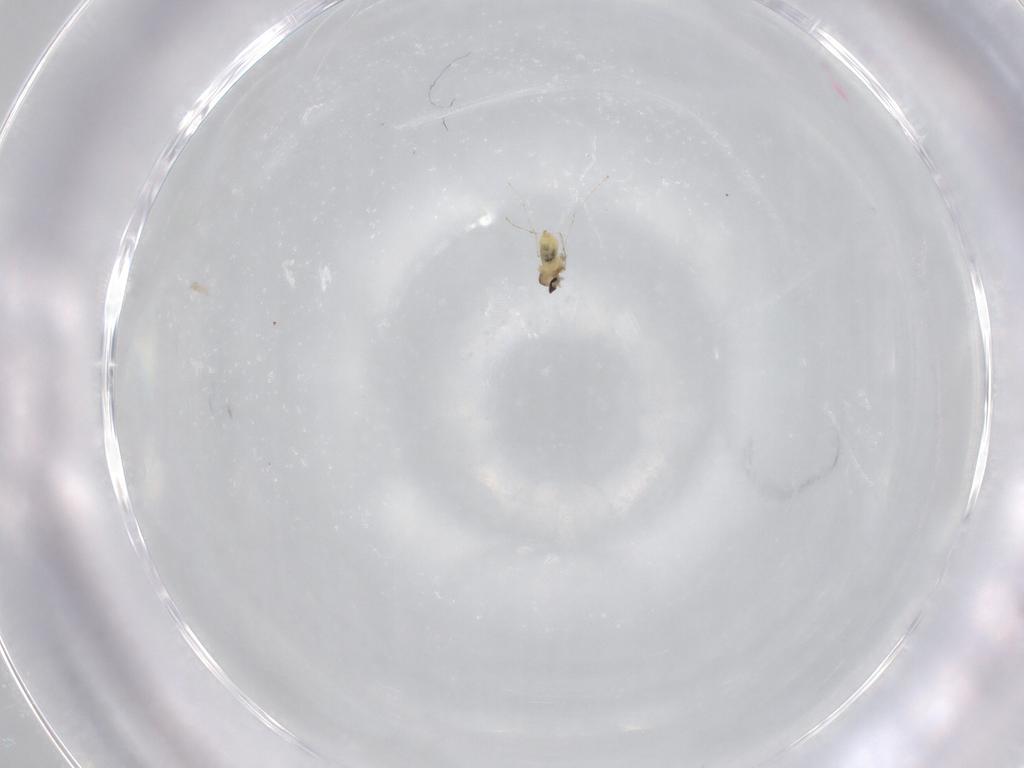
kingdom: Animalia
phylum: Arthropoda
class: Insecta
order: Diptera
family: Cecidomyiidae
